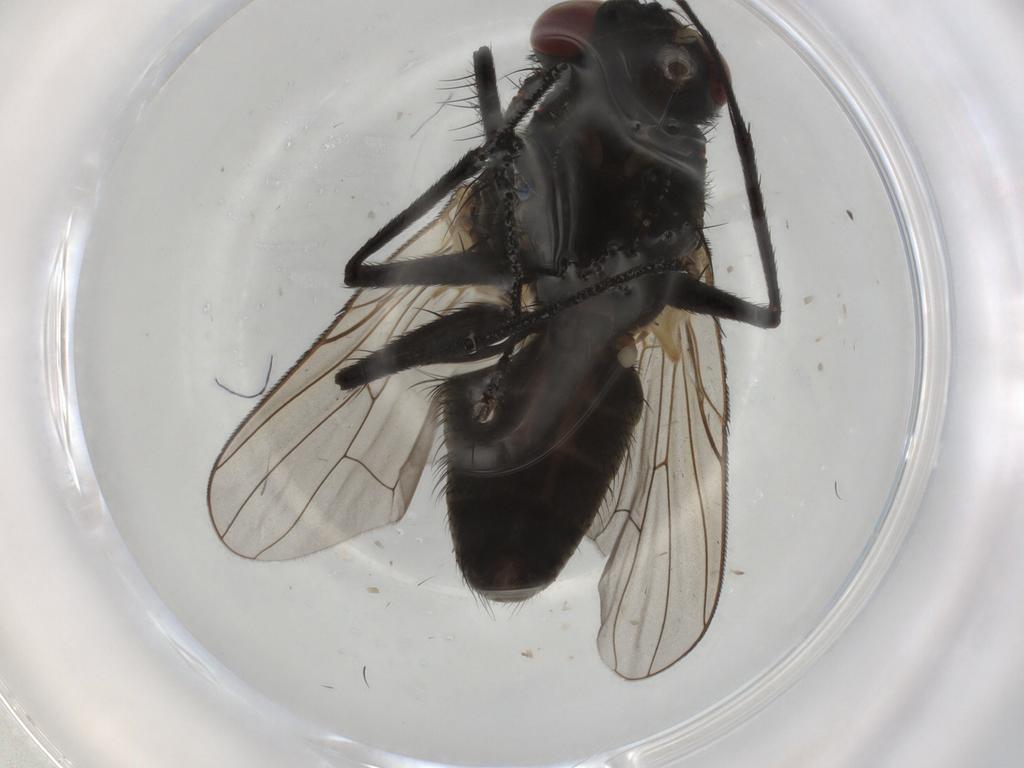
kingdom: Animalia
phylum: Arthropoda
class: Insecta
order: Diptera
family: Muscidae
